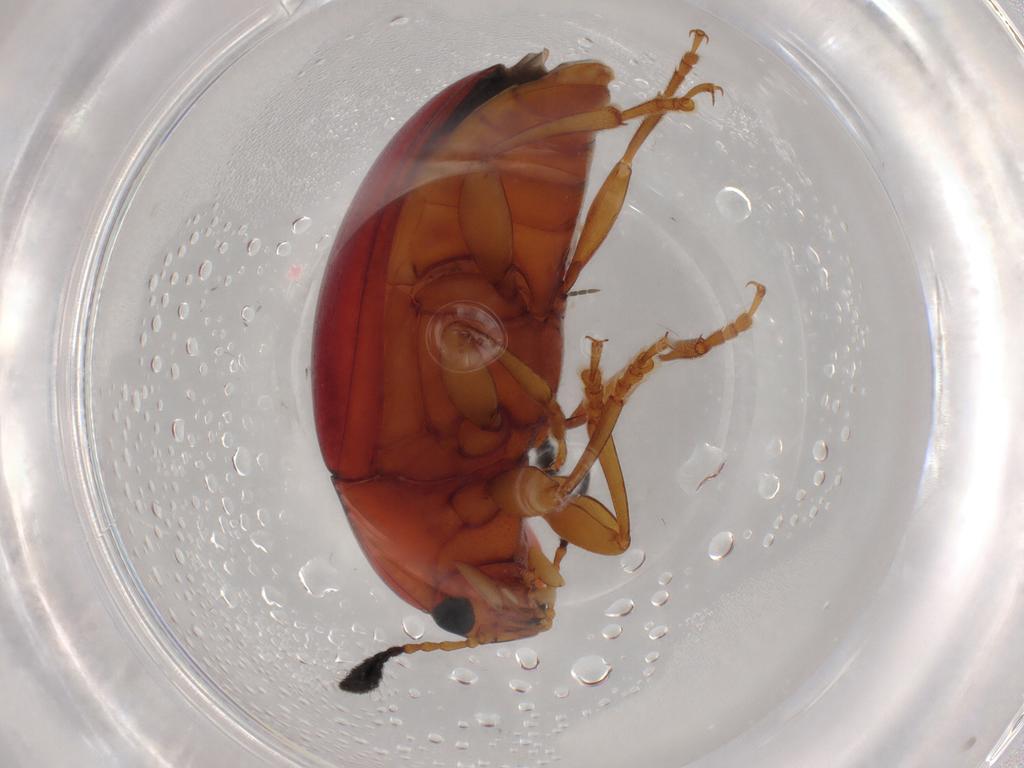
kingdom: Animalia
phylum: Arthropoda
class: Insecta
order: Coleoptera
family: Erotylidae
